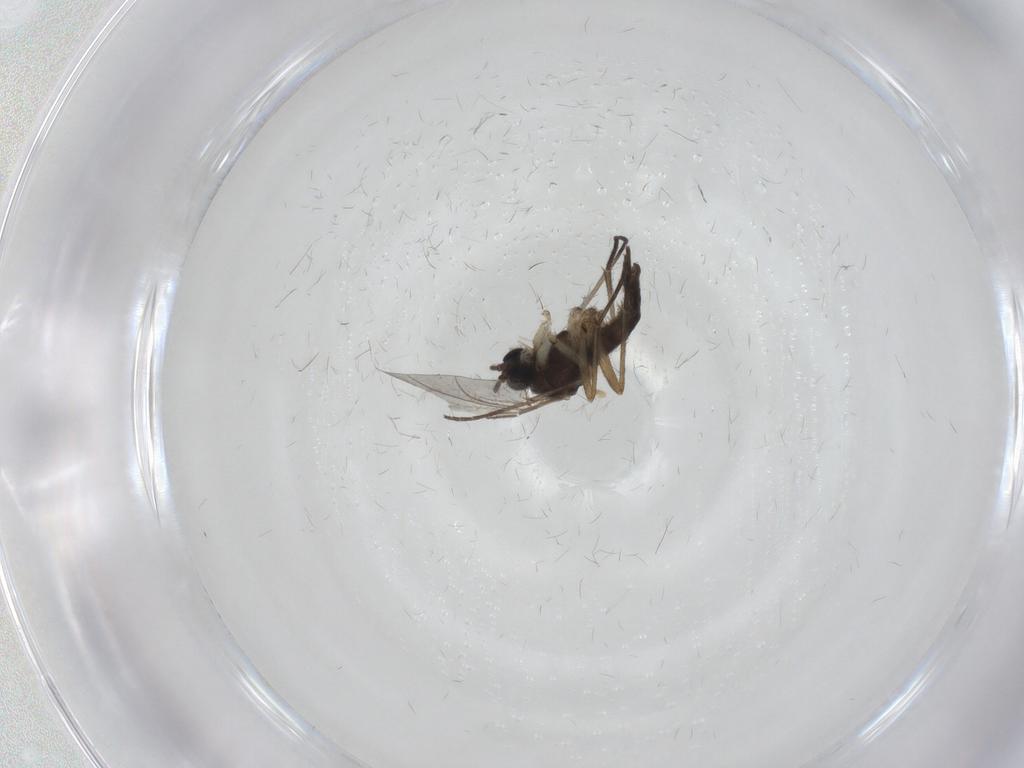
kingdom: Animalia
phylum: Arthropoda
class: Insecta
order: Diptera
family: Sciaridae
